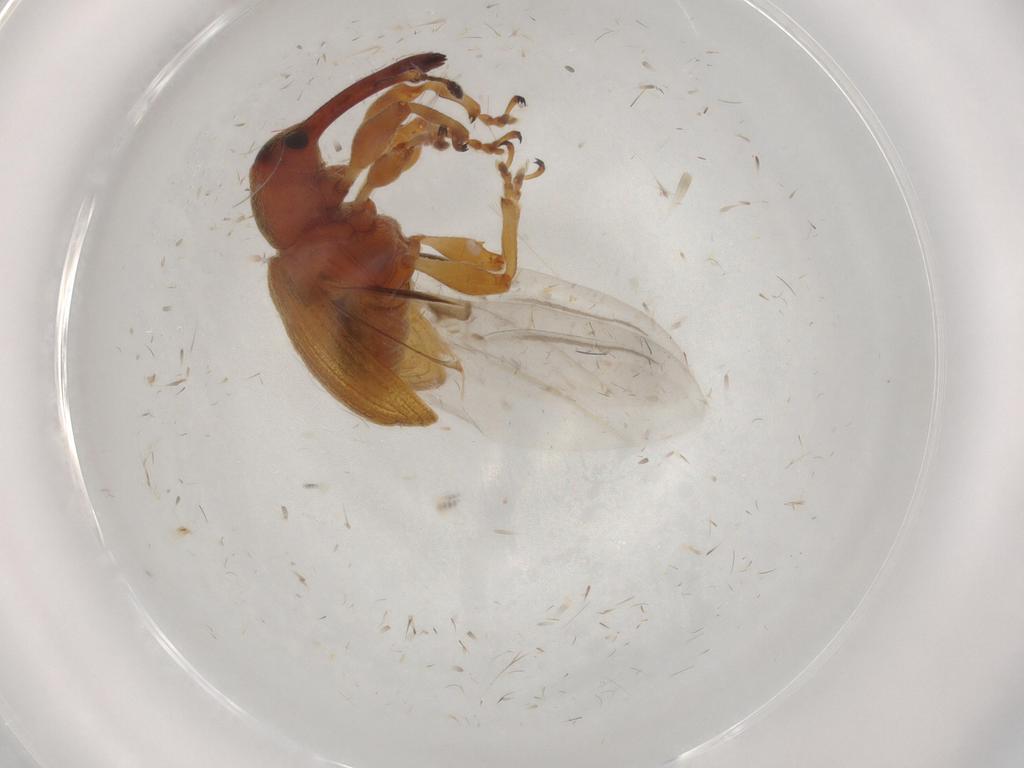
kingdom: Animalia
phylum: Arthropoda
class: Insecta
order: Coleoptera
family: Curculionidae
